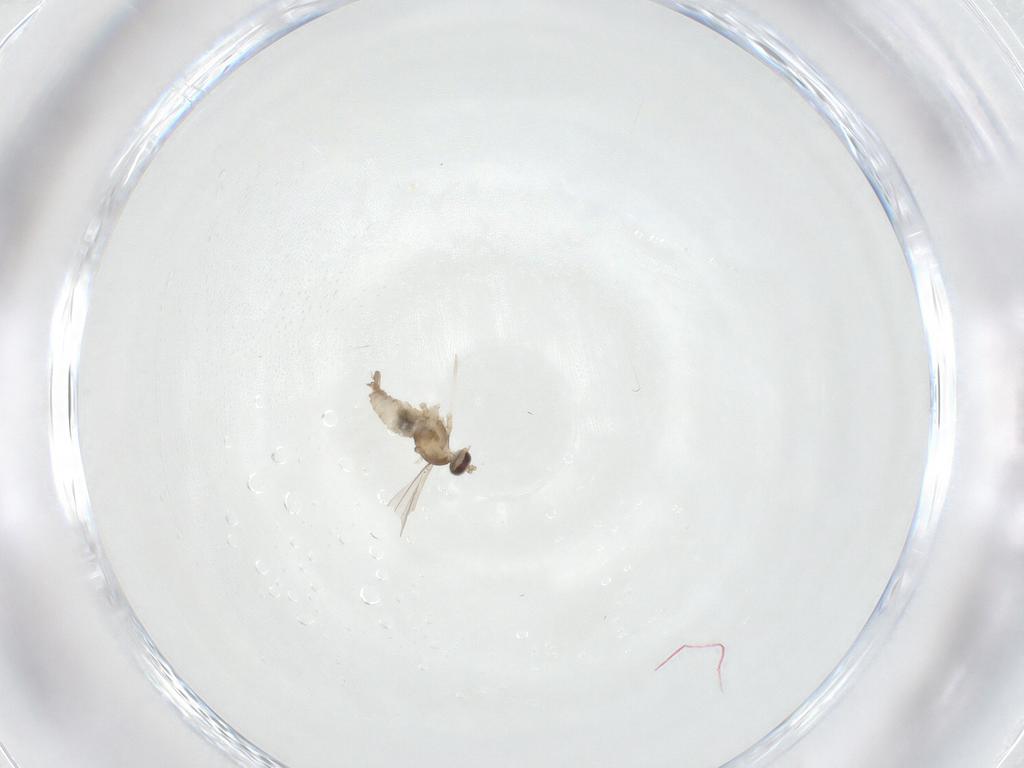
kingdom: Animalia
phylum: Arthropoda
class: Insecta
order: Diptera
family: Cecidomyiidae
